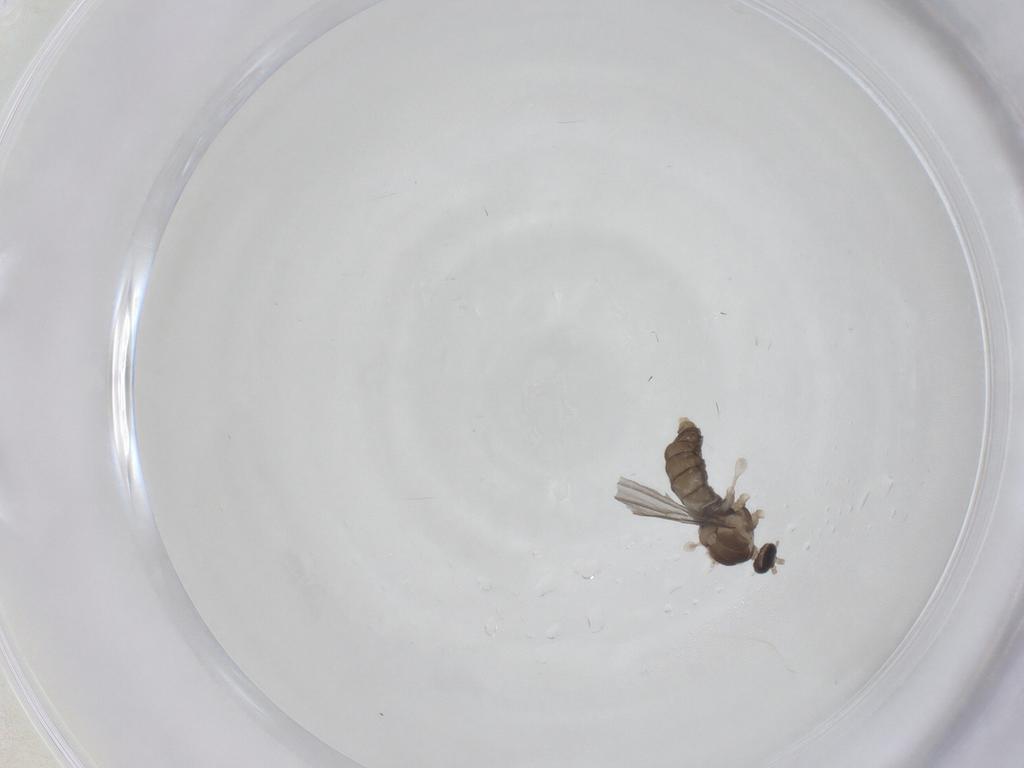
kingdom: Animalia
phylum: Arthropoda
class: Insecta
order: Diptera
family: Cecidomyiidae
